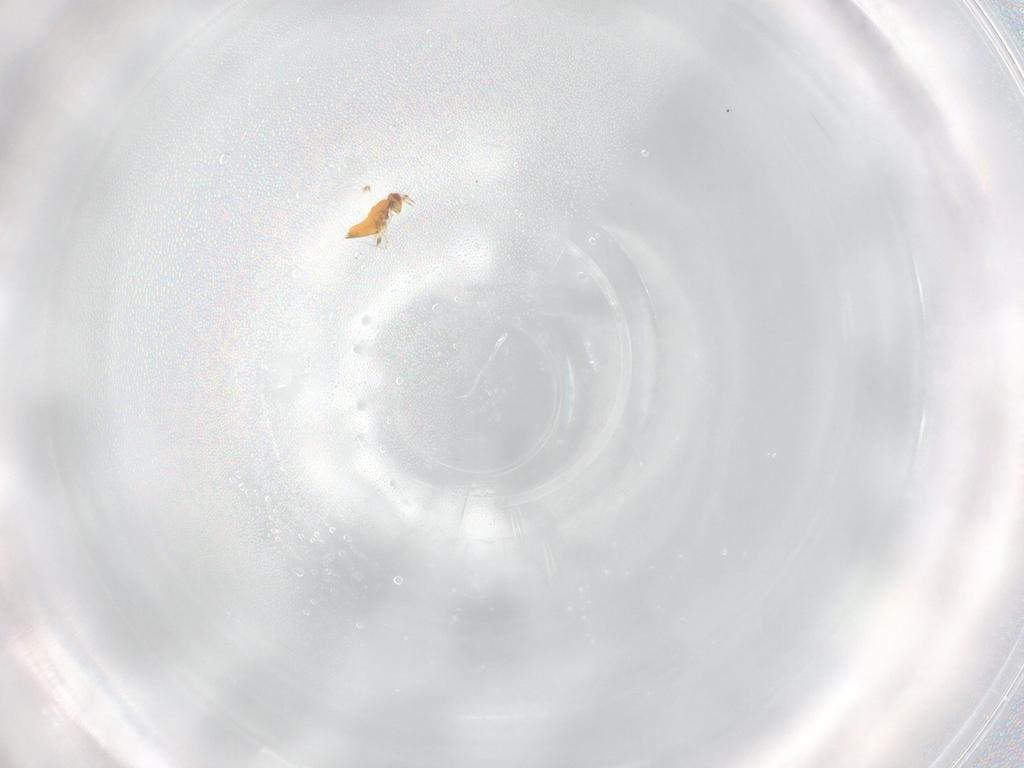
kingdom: Animalia
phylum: Arthropoda
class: Insecta
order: Hymenoptera
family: Trichogrammatidae
